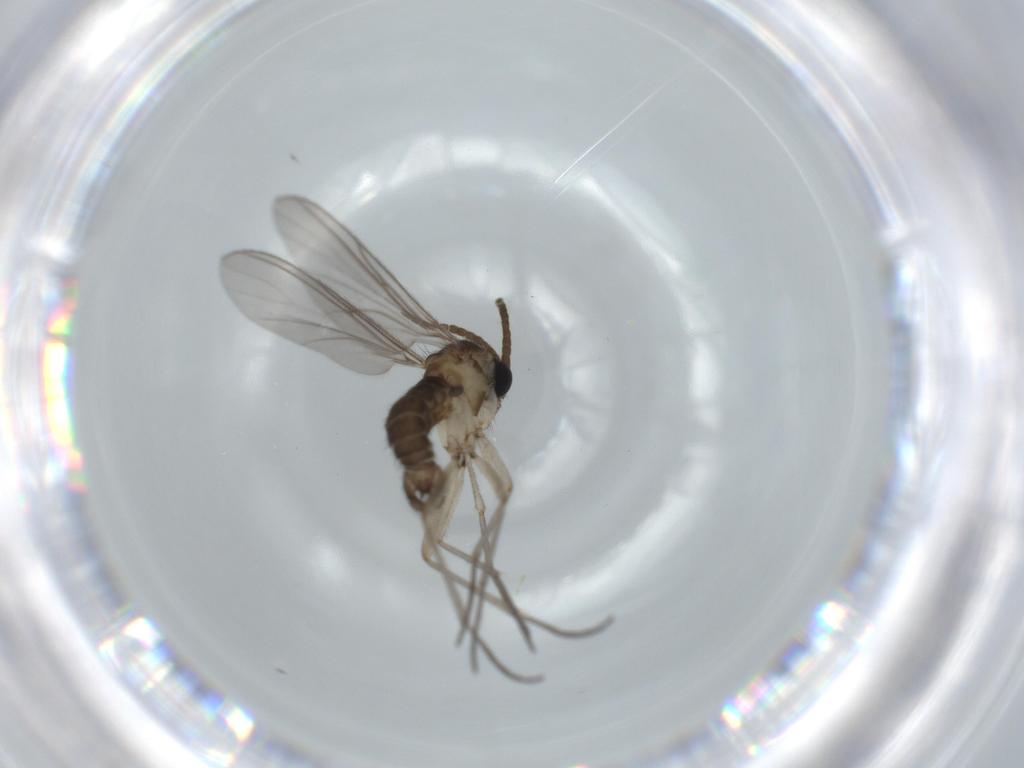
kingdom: Animalia
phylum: Arthropoda
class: Insecta
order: Diptera
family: Sciaridae
